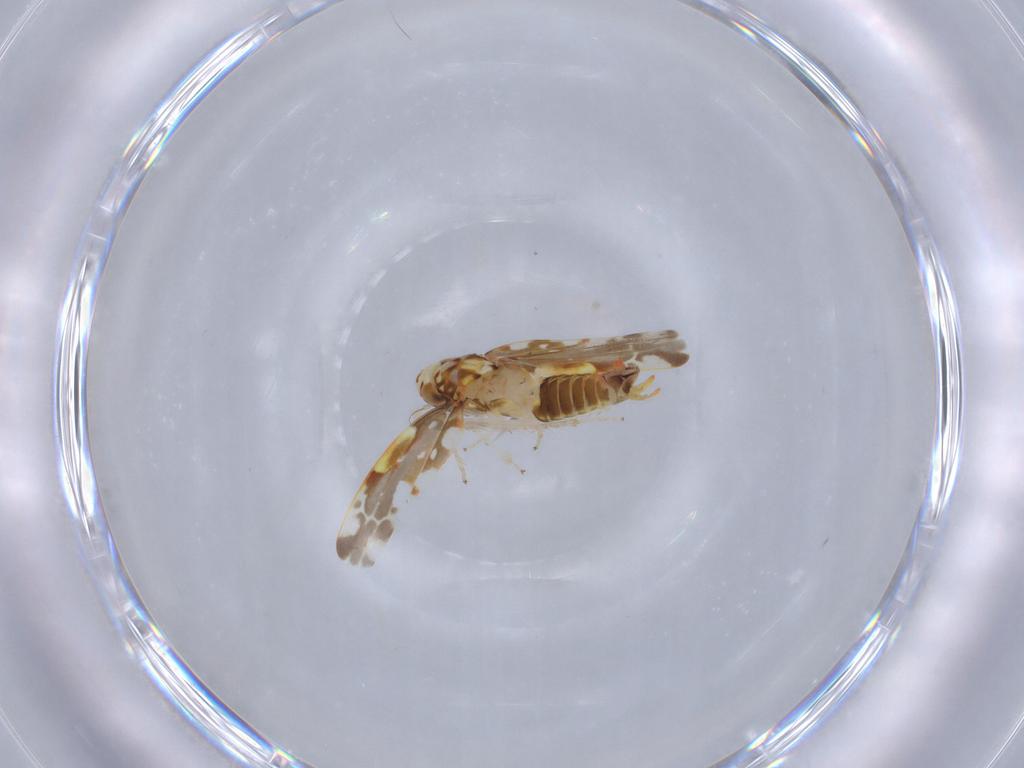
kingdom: Animalia
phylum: Arthropoda
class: Insecta
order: Hemiptera
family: Cicadellidae
